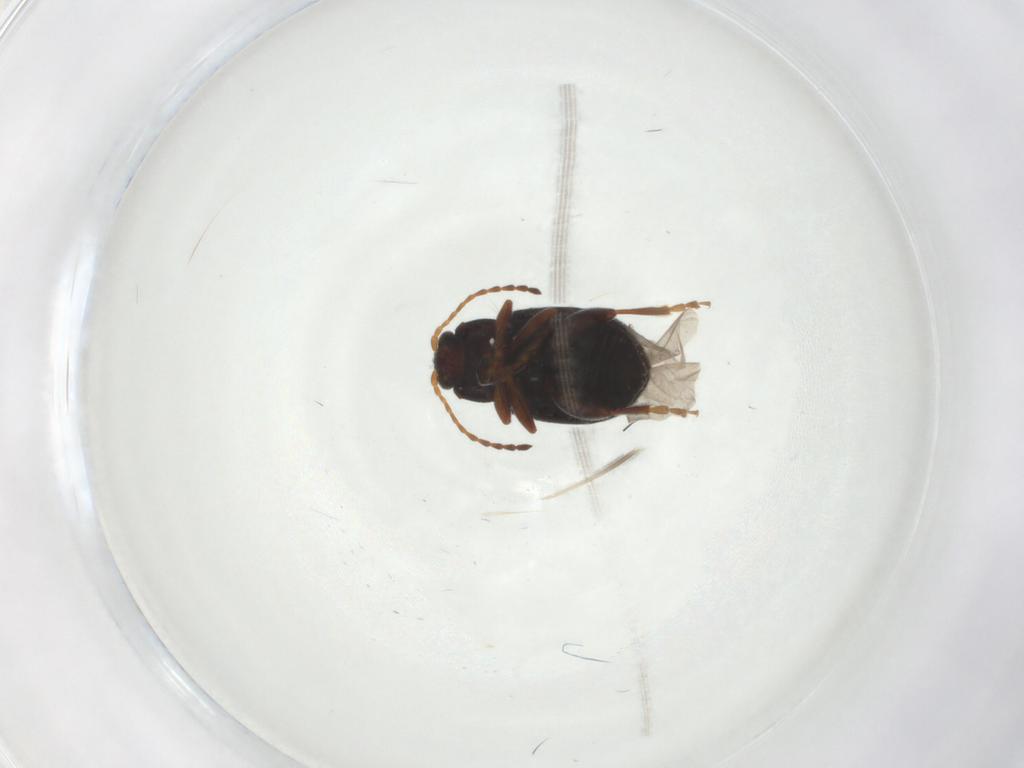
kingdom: Animalia
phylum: Arthropoda
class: Insecta
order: Coleoptera
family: Chrysomelidae
